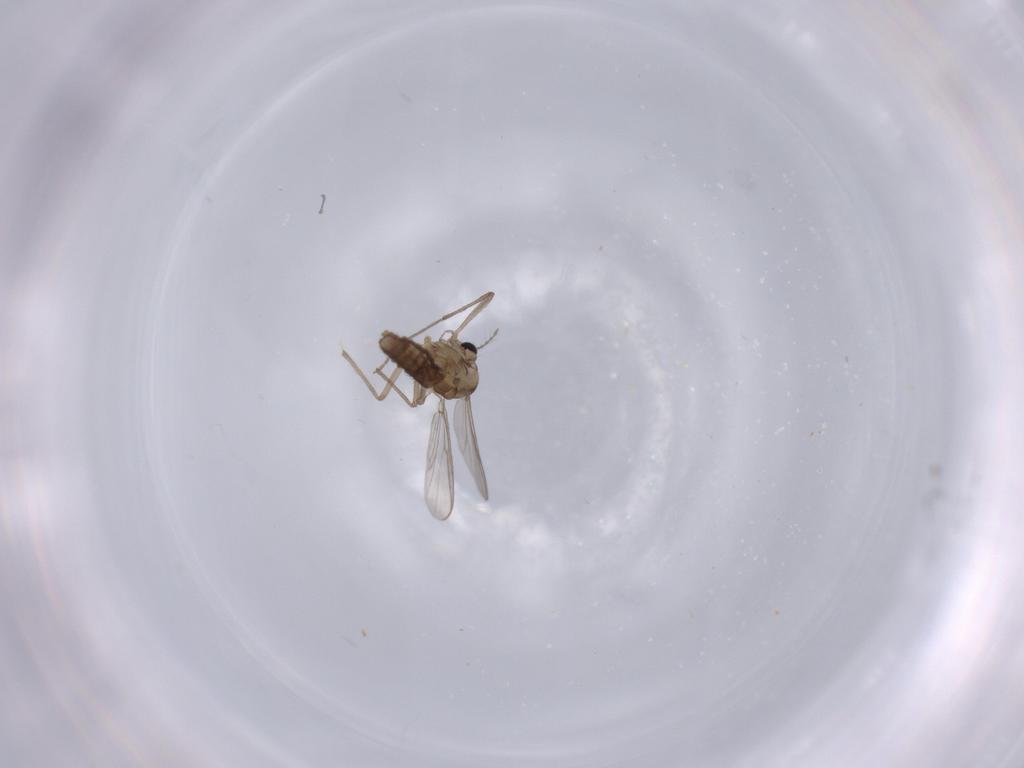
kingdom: Animalia
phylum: Arthropoda
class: Insecta
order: Diptera
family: Chironomidae
